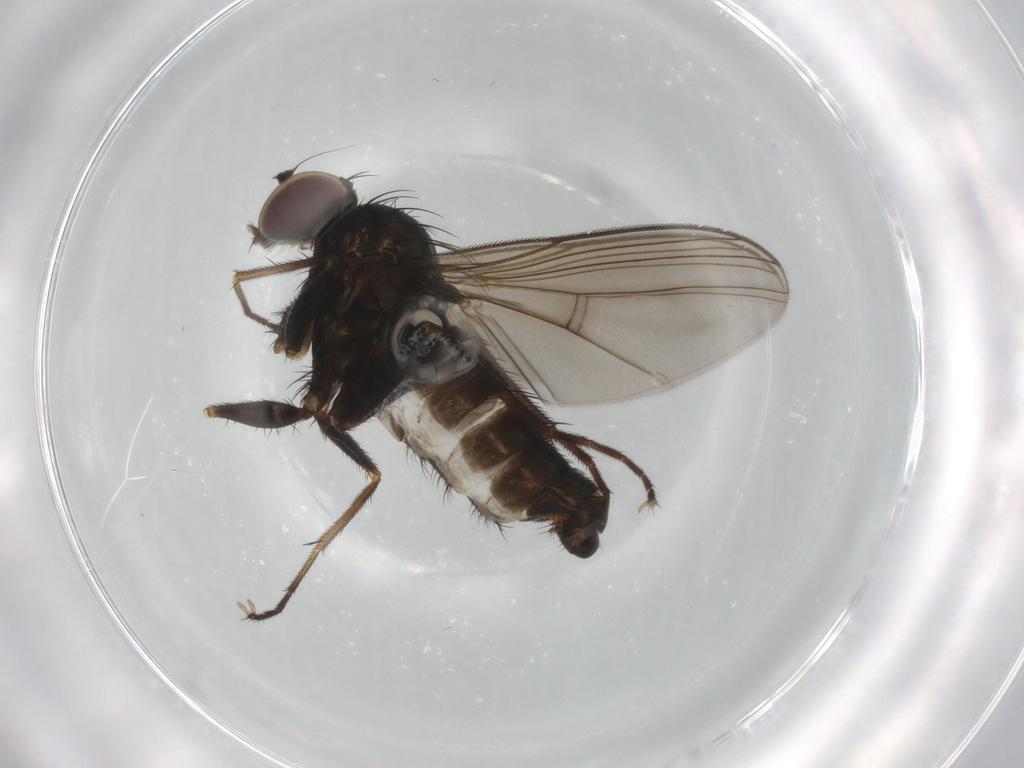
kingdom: Animalia
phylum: Arthropoda
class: Insecta
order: Diptera
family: Dolichopodidae
